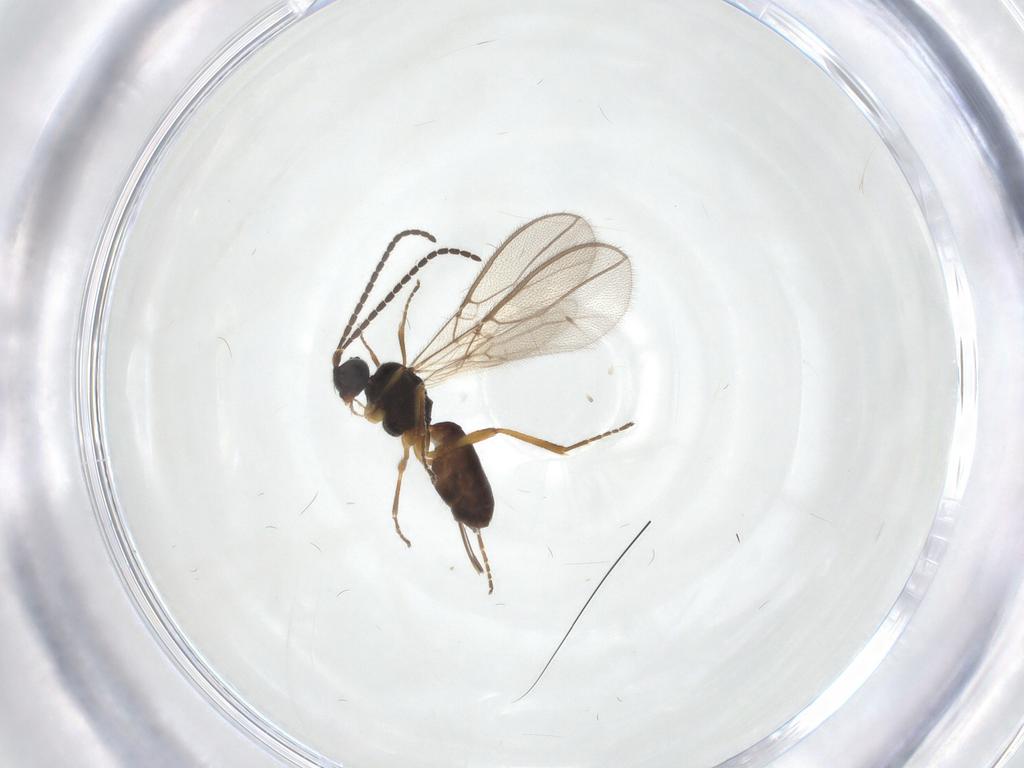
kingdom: Animalia
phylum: Arthropoda
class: Insecta
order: Hymenoptera
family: Braconidae
